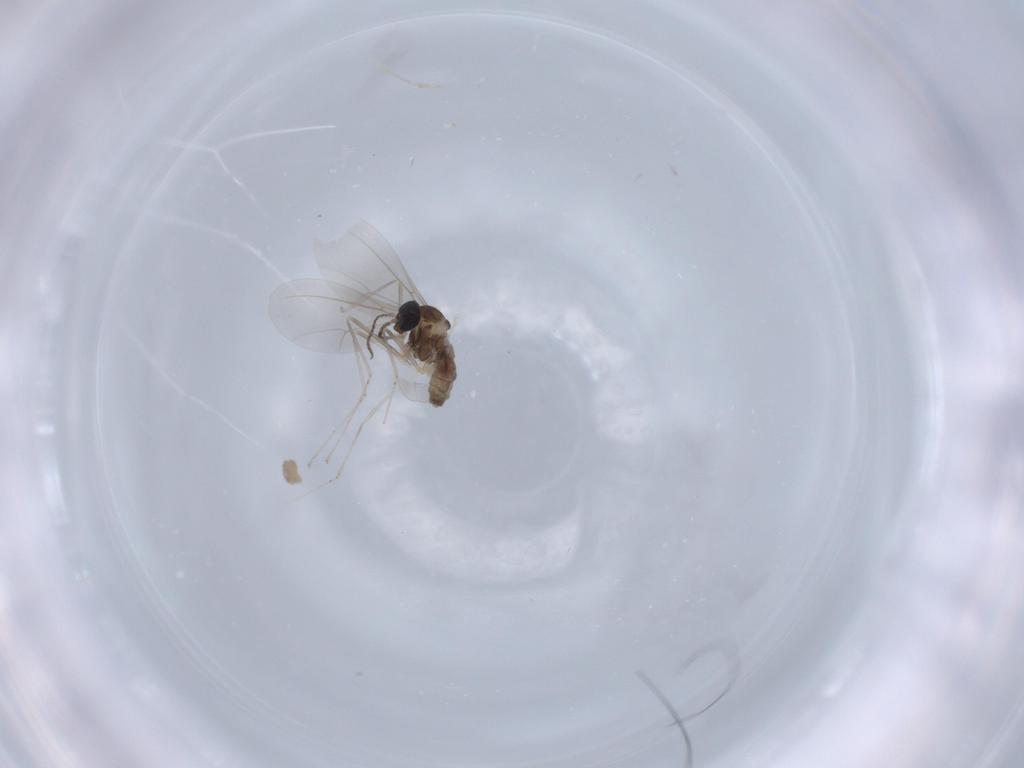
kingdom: Animalia
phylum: Arthropoda
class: Insecta
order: Diptera
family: Cecidomyiidae
